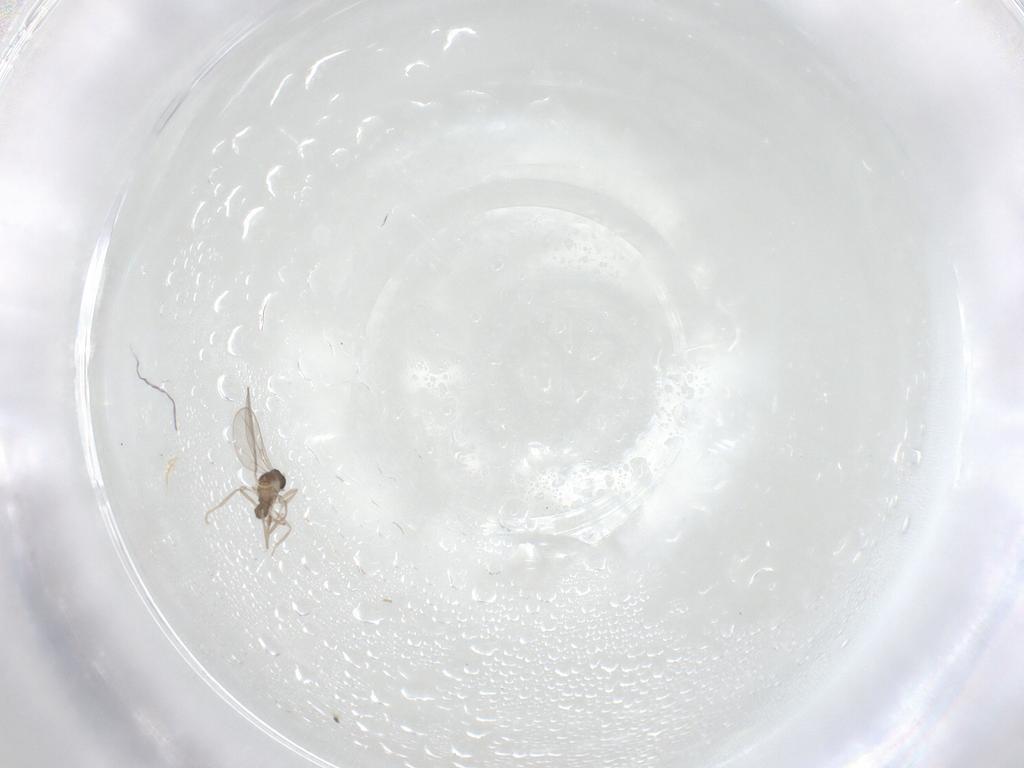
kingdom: Animalia
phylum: Arthropoda
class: Insecta
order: Diptera
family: Cecidomyiidae
